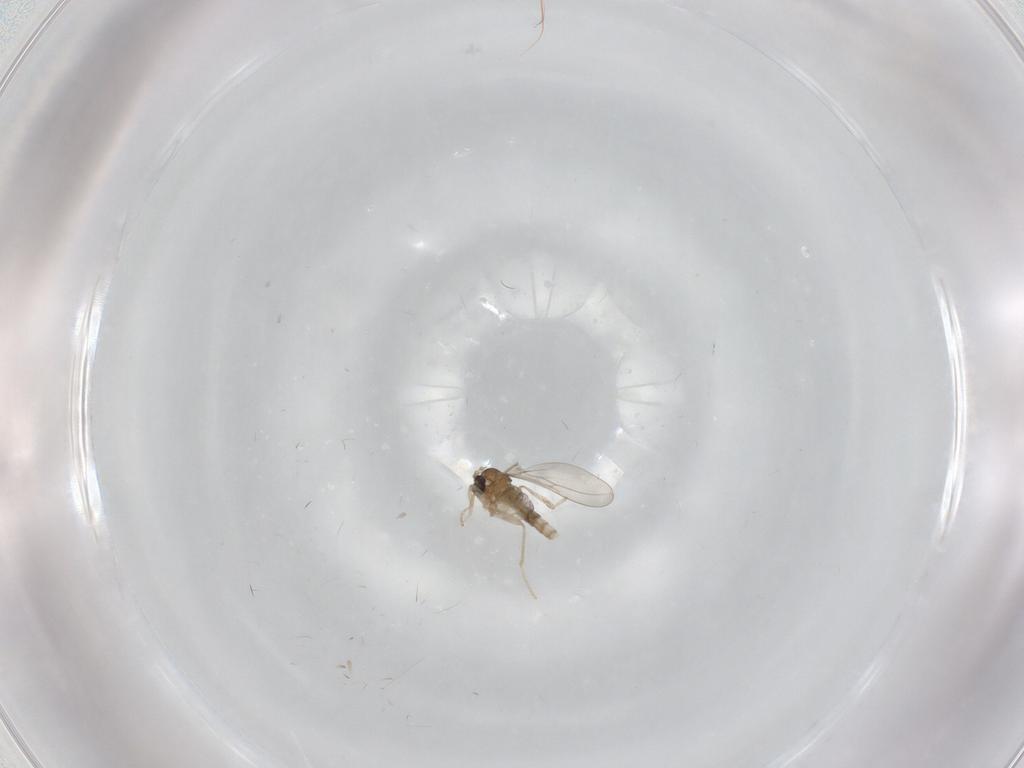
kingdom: Animalia
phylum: Arthropoda
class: Insecta
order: Diptera
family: Cecidomyiidae
